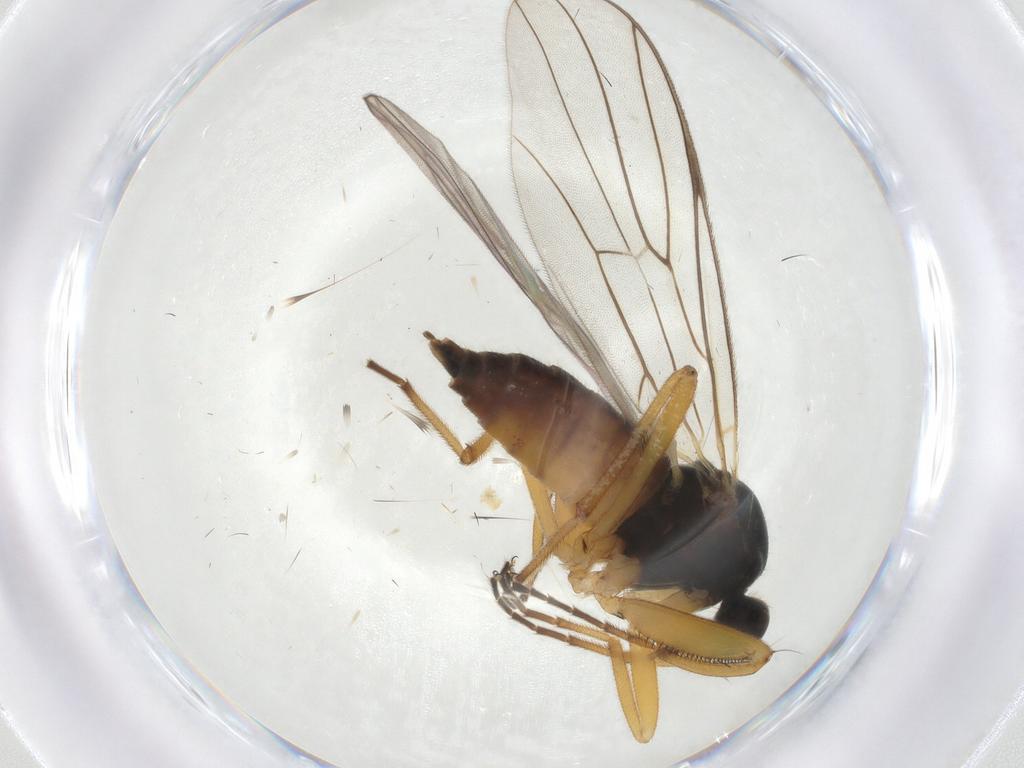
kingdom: Animalia
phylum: Arthropoda
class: Insecta
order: Diptera
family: Hybotidae
